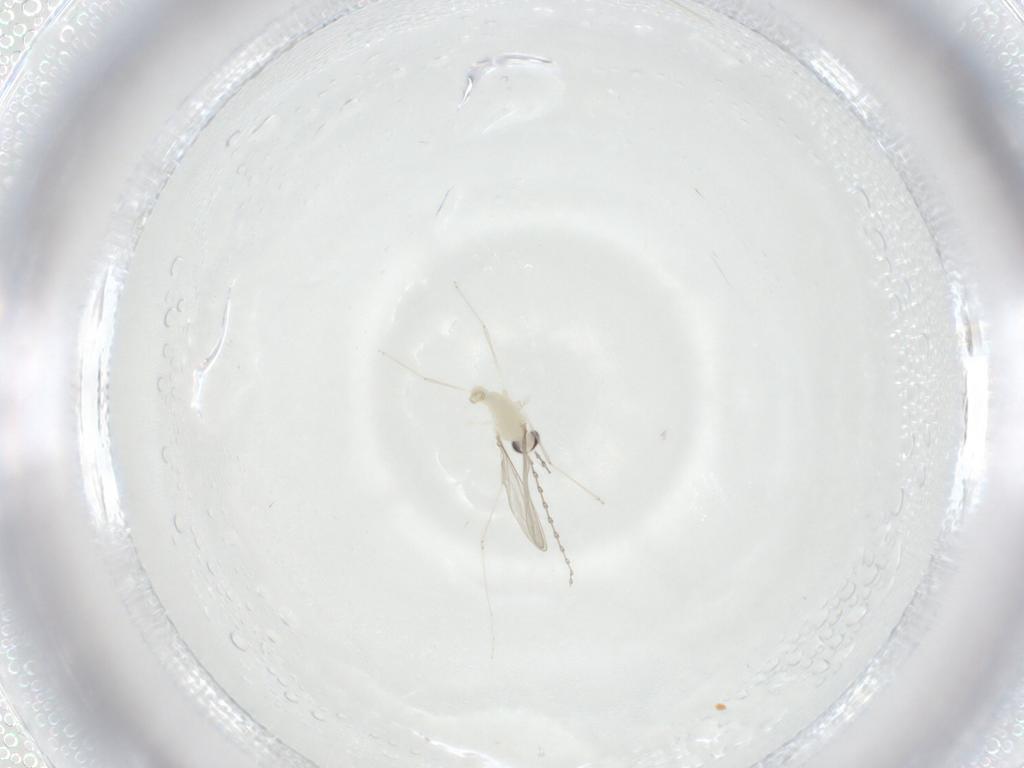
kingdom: Animalia
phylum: Arthropoda
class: Insecta
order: Diptera
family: Cecidomyiidae
